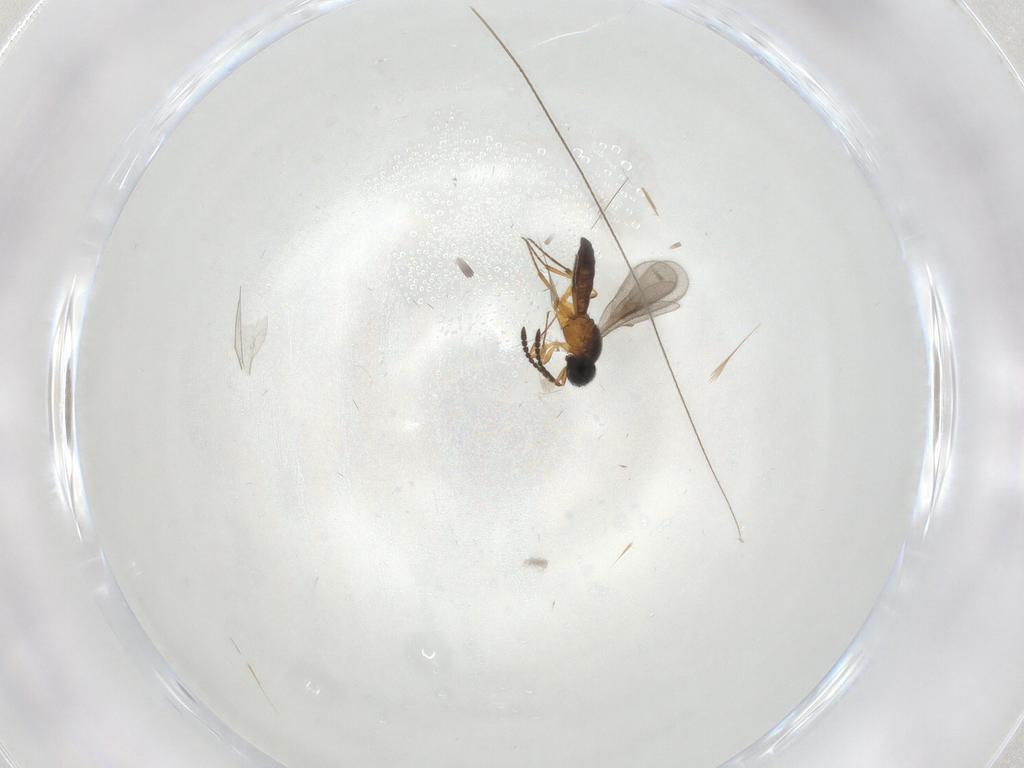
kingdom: Animalia
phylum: Arthropoda
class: Insecta
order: Hymenoptera
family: Scelionidae
